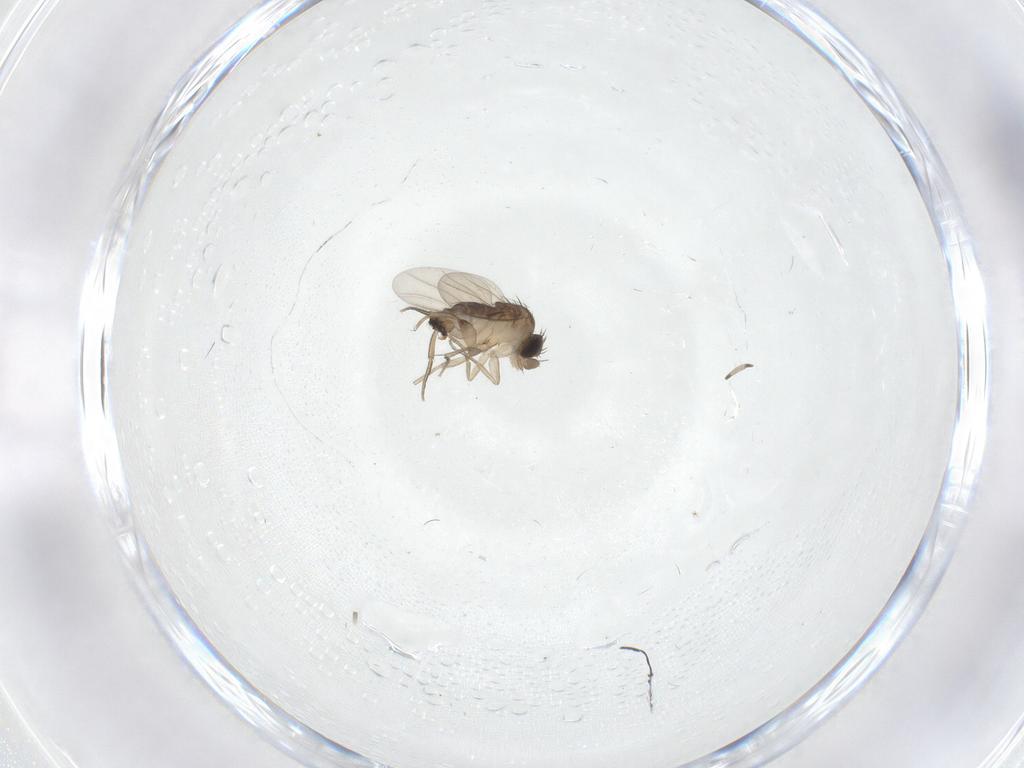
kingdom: Animalia
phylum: Arthropoda
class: Insecta
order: Diptera
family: Phoridae
